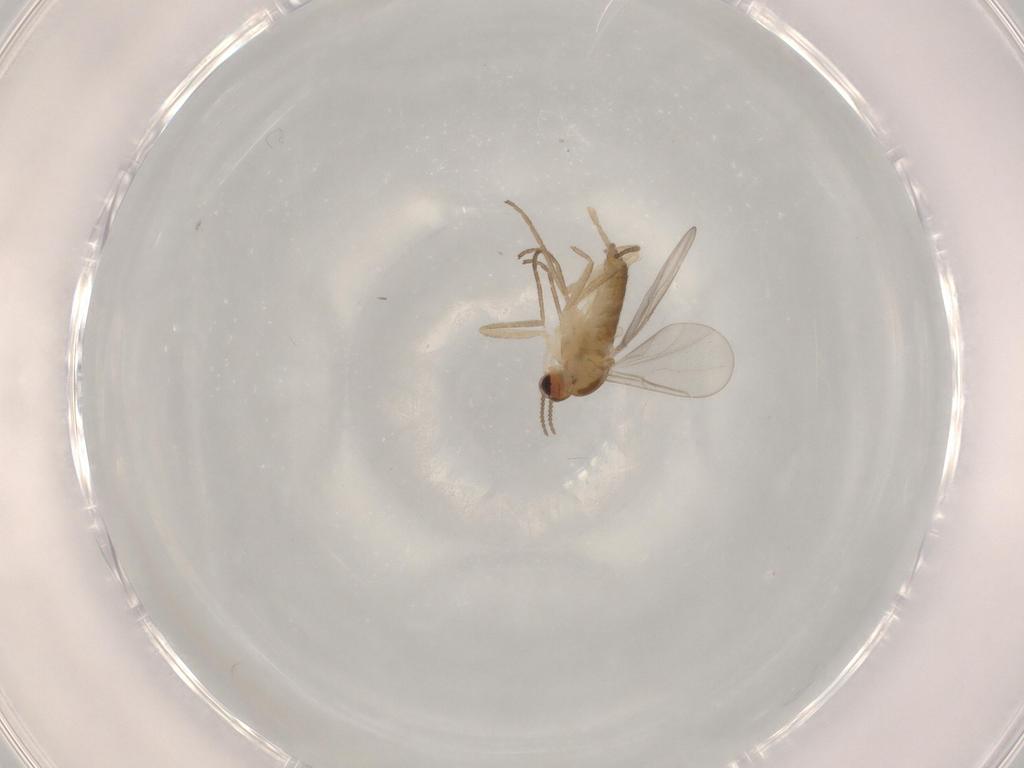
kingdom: Animalia
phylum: Arthropoda
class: Insecta
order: Diptera
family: Cecidomyiidae
